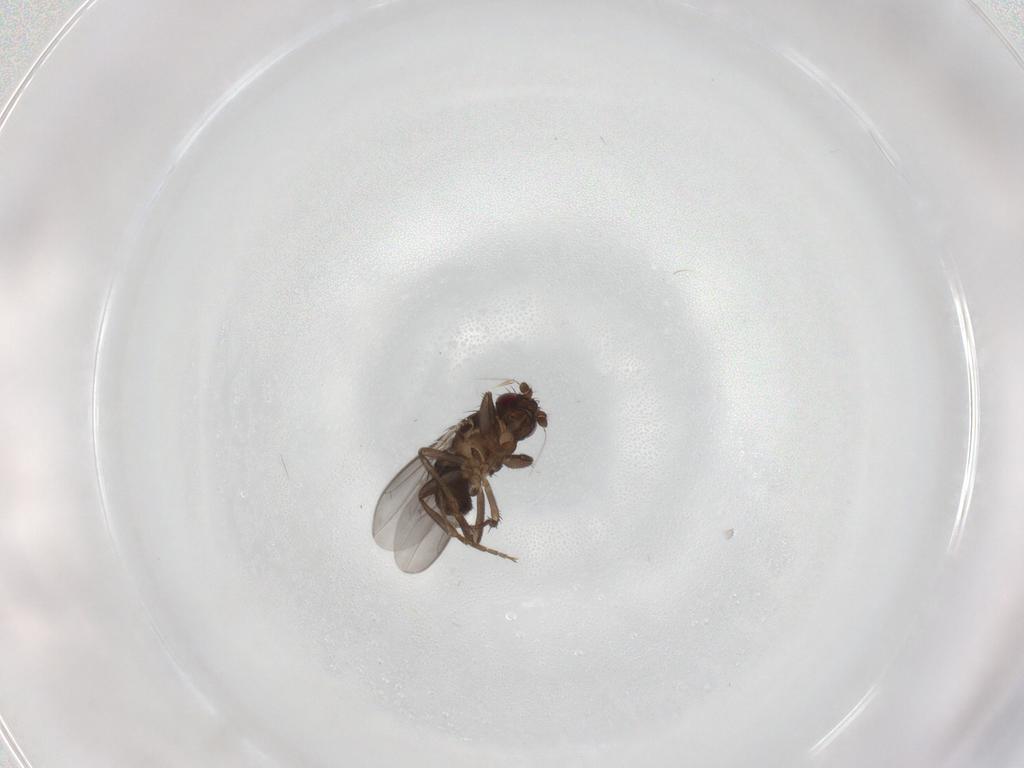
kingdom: Animalia
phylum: Arthropoda
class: Insecta
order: Diptera
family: Sphaeroceridae
